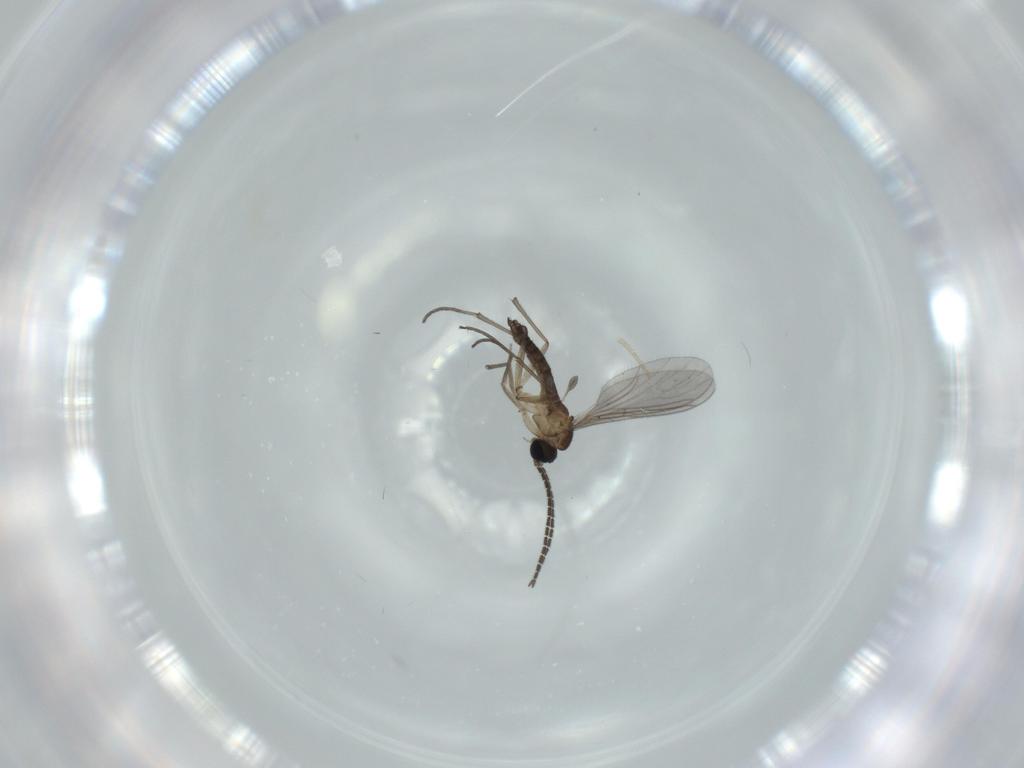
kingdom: Animalia
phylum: Arthropoda
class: Insecta
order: Diptera
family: Sciaridae
